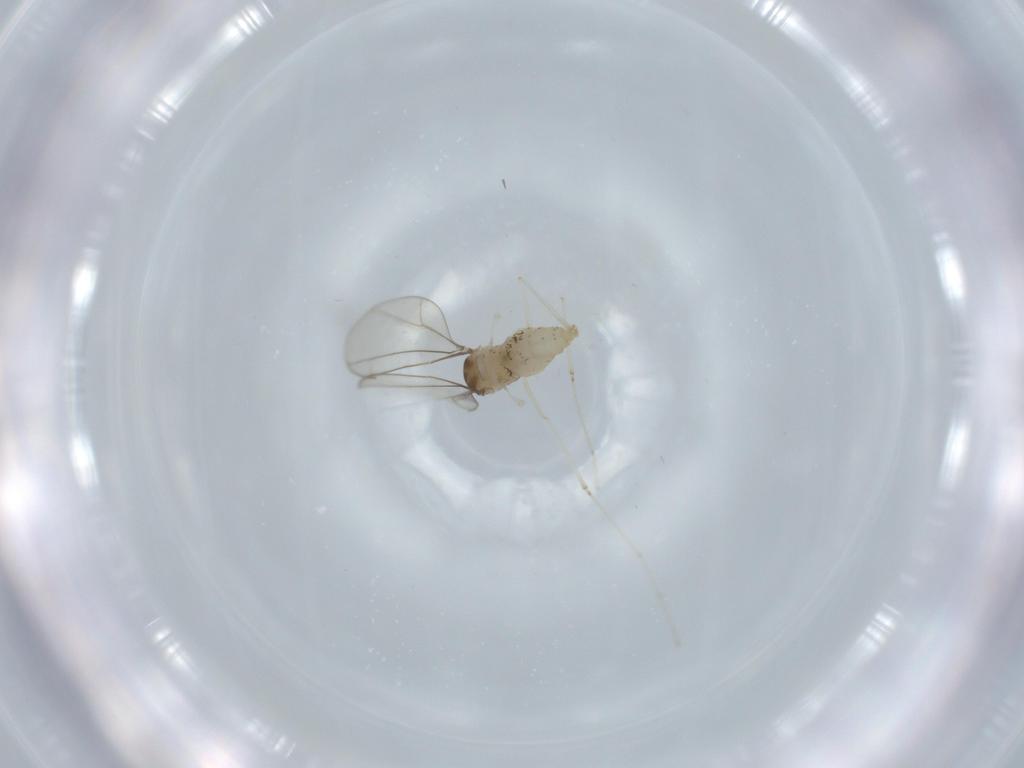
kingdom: Animalia
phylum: Arthropoda
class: Insecta
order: Diptera
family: Cecidomyiidae
